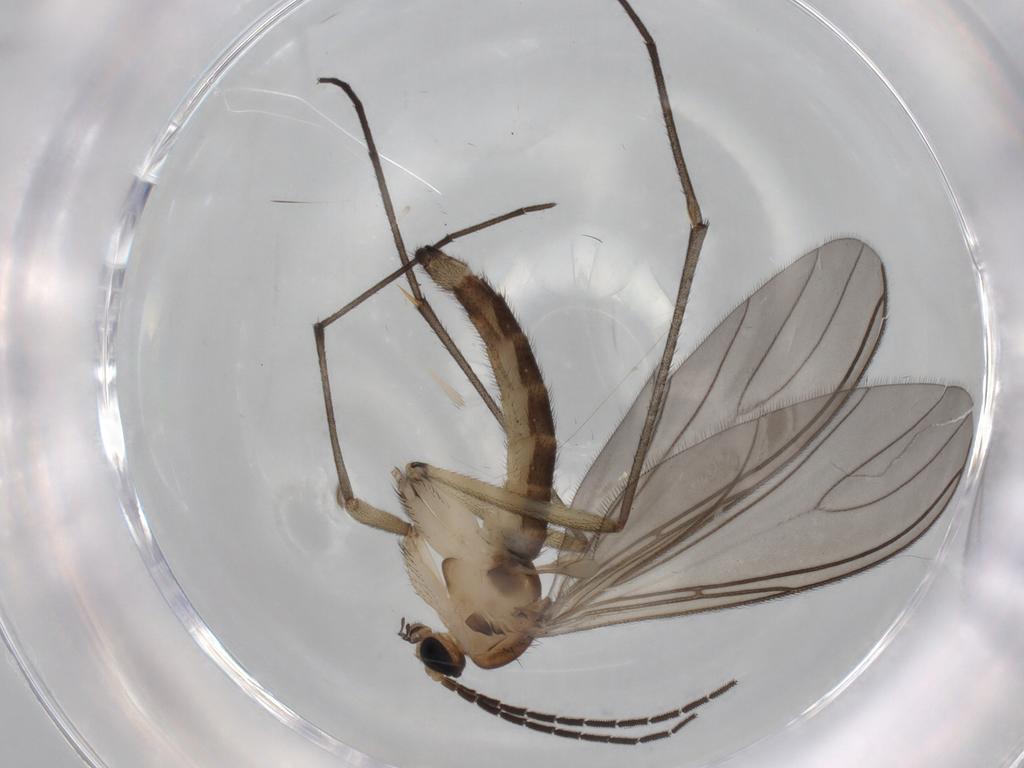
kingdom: Animalia
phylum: Arthropoda
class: Insecta
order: Diptera
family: Sciaridae
